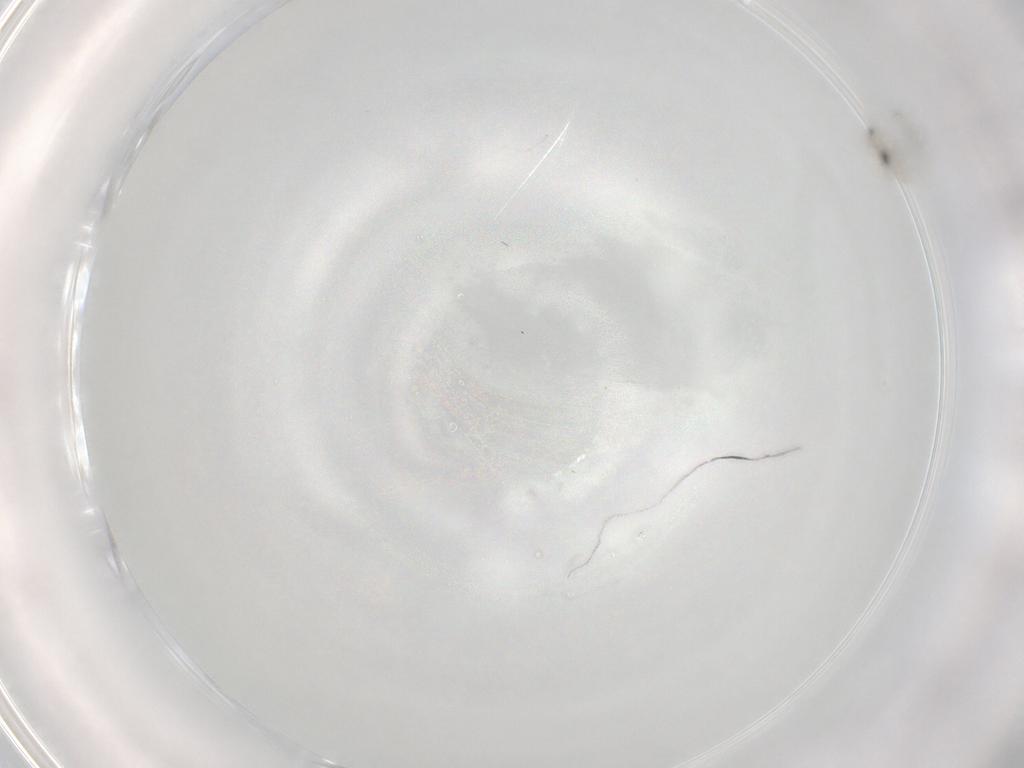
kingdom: Animalia
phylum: Arthropoda
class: Insecta
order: Diptera
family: Cecidomyiidae
